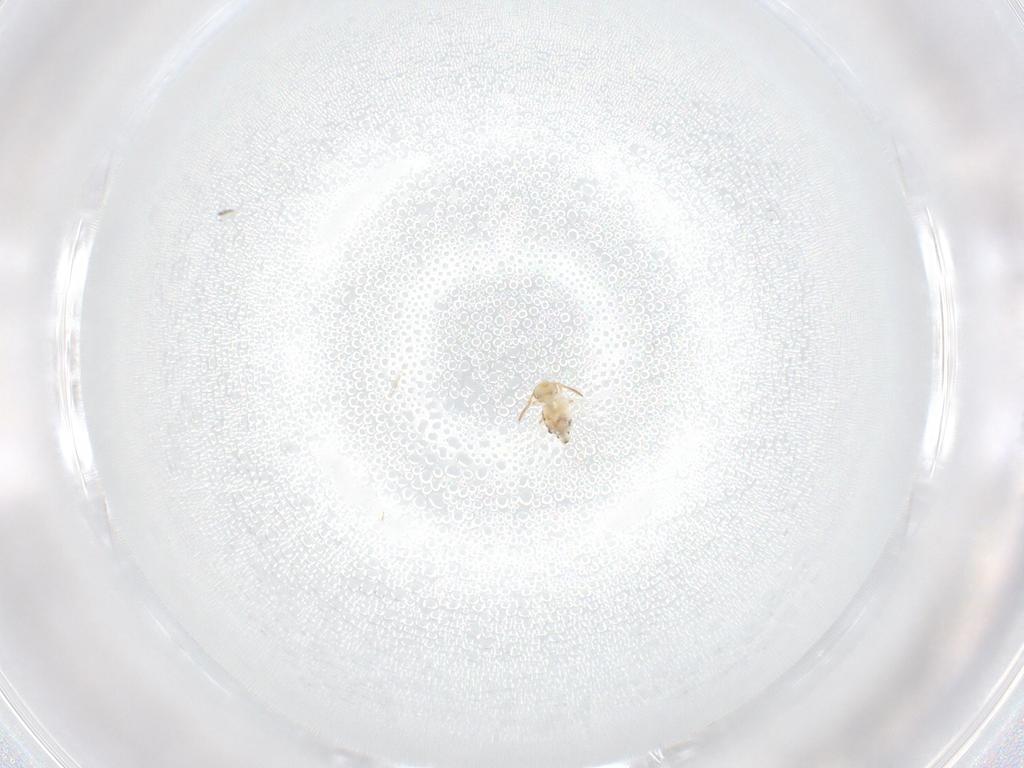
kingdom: Animalia
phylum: Arthropoda
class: Collembola
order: Symphypleona
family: Bourletiellidae
